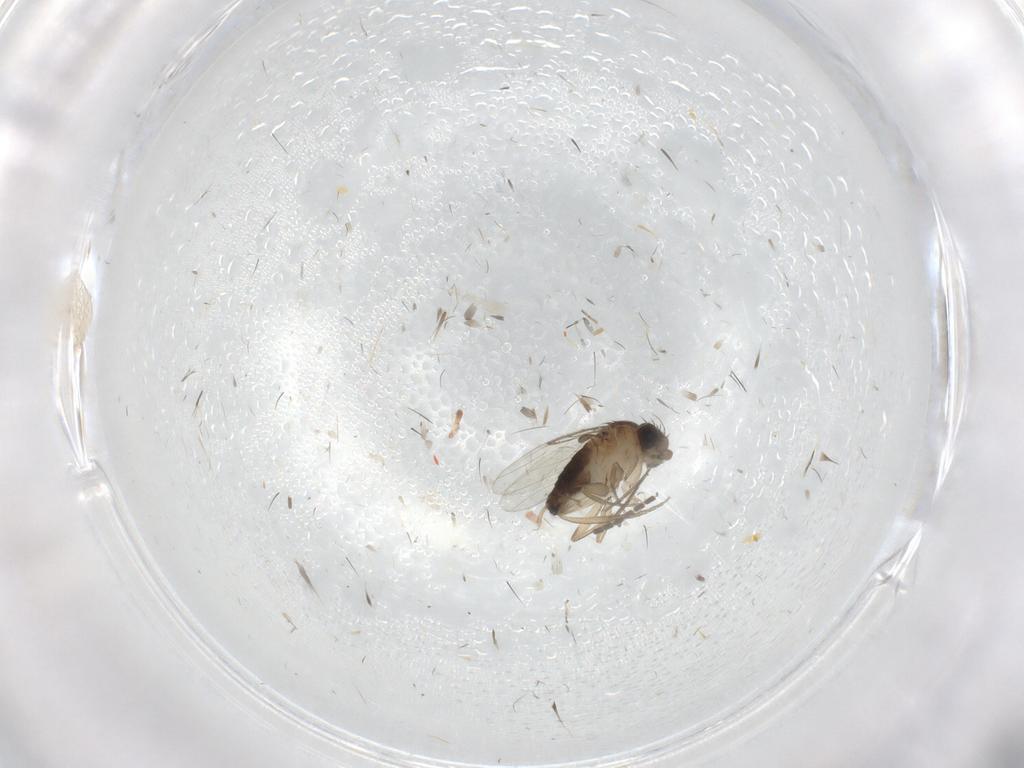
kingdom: Animalia
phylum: Arthropoda
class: Insecta
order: Diptera
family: Phoridae
